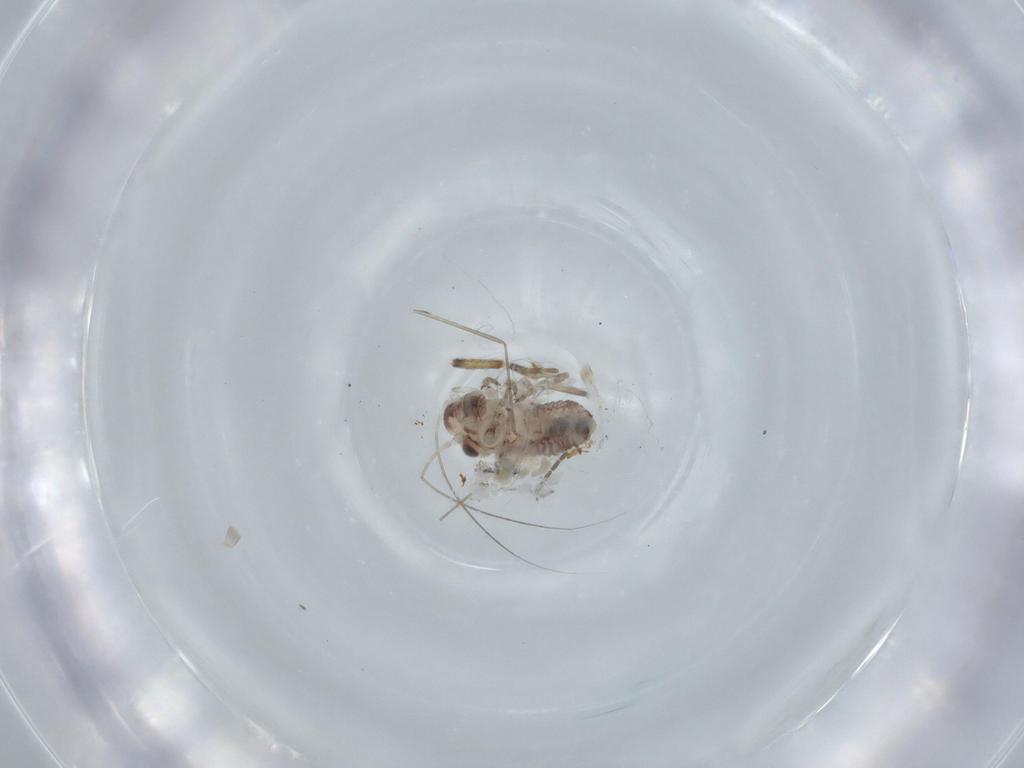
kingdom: Animalia
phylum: Arthropoda
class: Insecta
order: Psocodea
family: Psocidae
